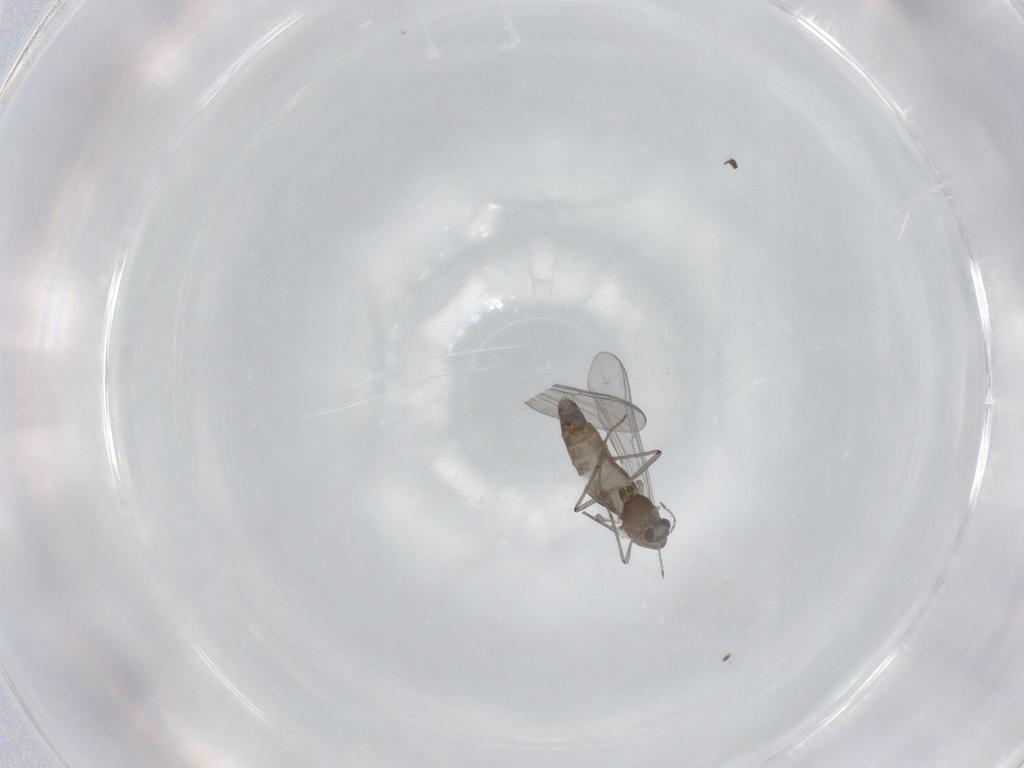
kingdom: Animalia
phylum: Arthropoda
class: Insecta
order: Diptera
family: Chironomidae
